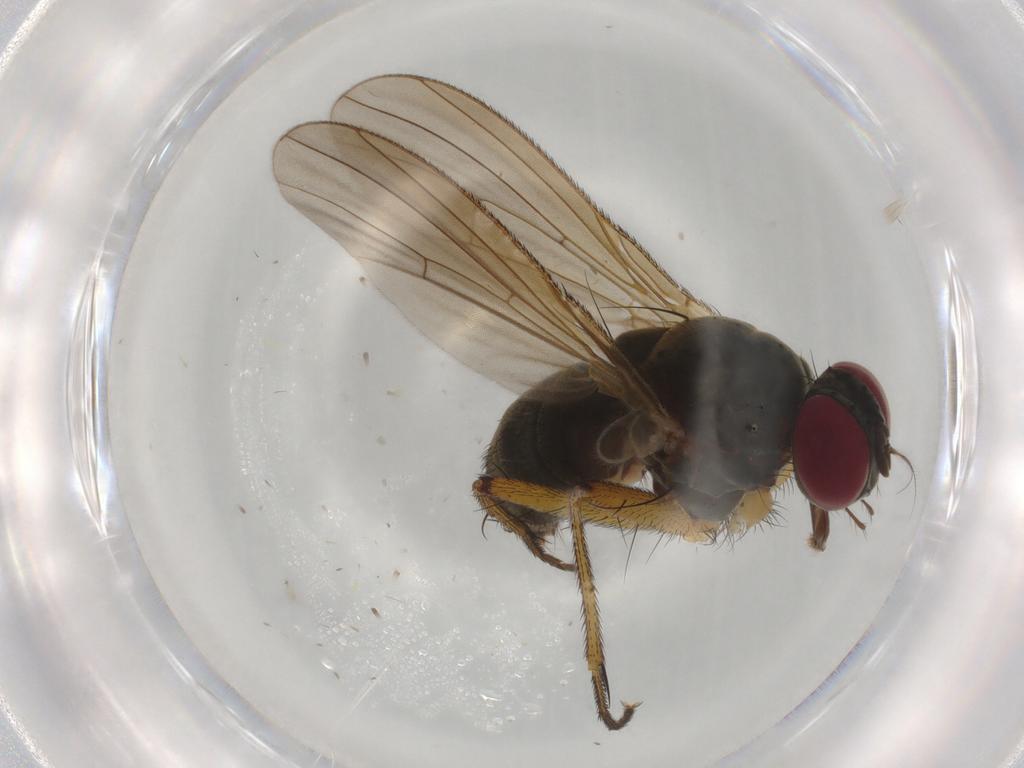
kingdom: Animalia
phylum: Arthropoda
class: Insecta
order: Diptera
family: Muscidae
